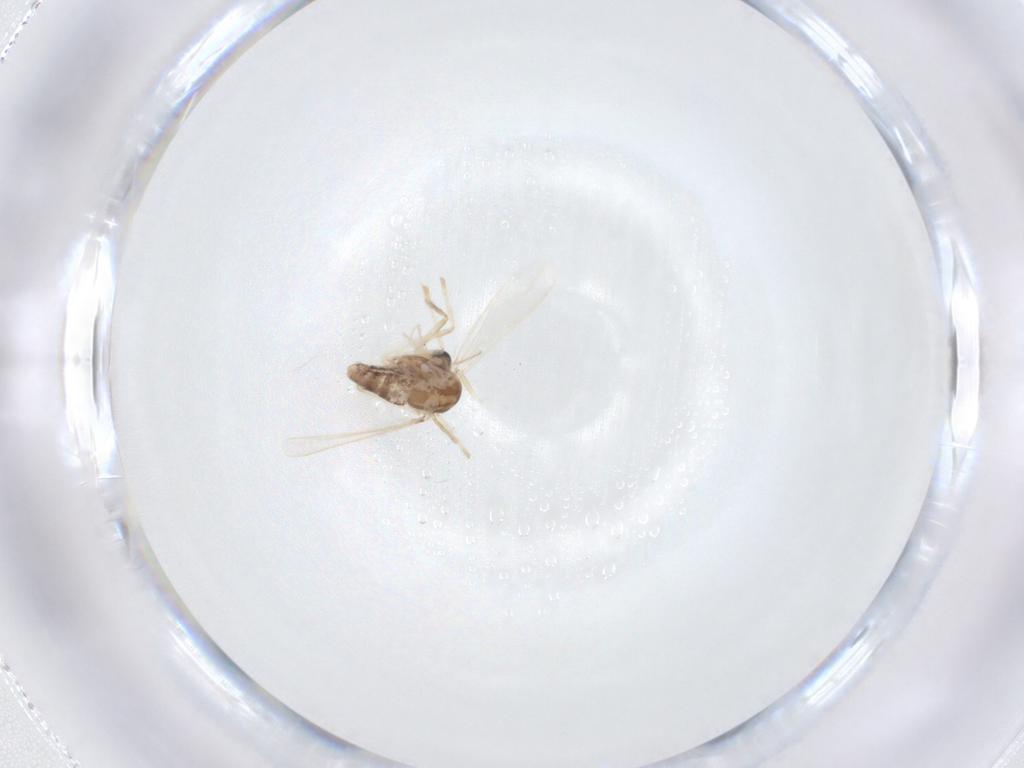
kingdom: Animalia
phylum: Arthropoda
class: Insecta
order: Diptera
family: Chironomidae
